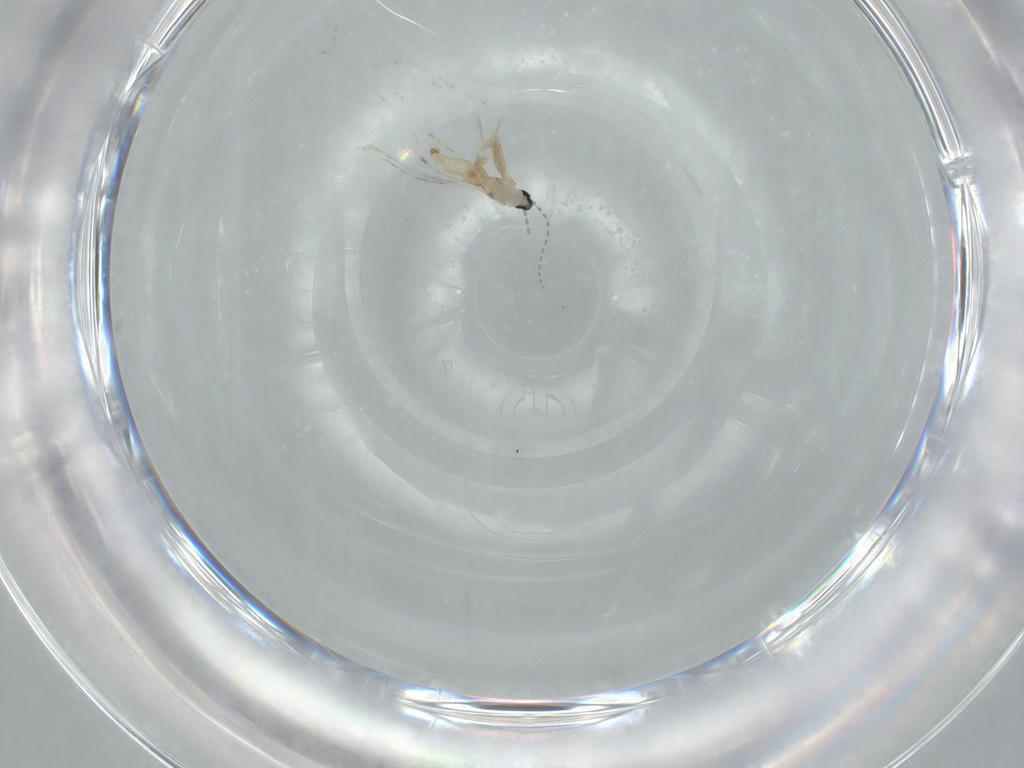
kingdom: Animalia
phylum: Arthropoda
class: Insecta
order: Diptera
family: Cecidomyiidae
